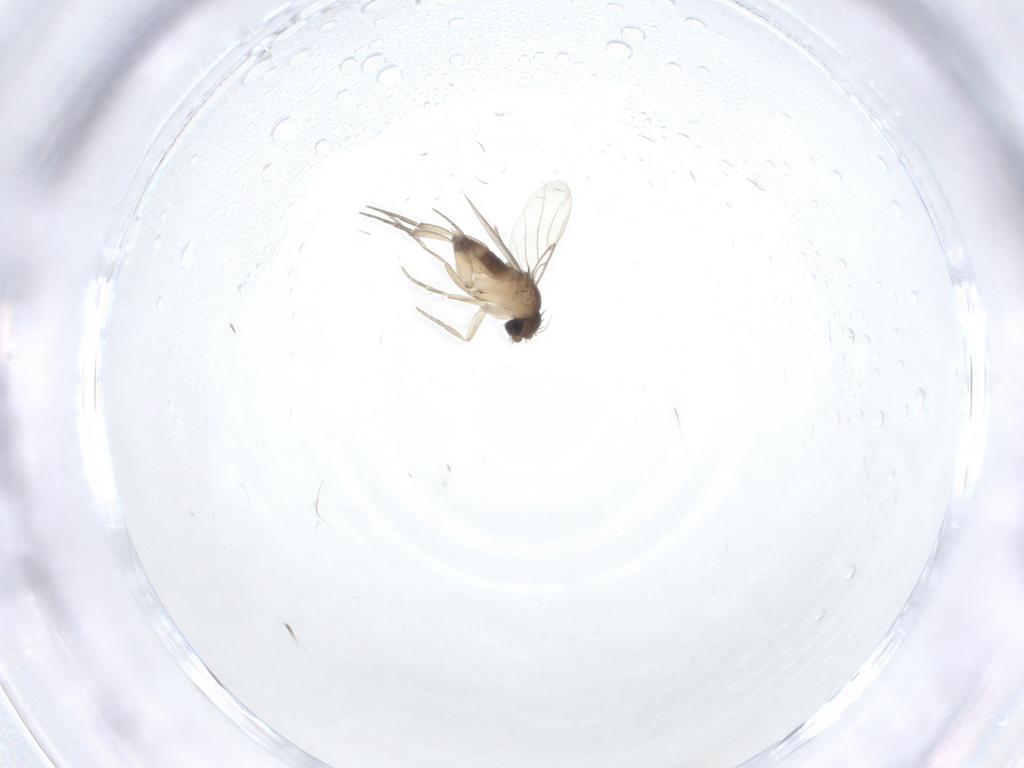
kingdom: Animalia
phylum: Arthropoda
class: Insecta
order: Diptera
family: Phoridae
